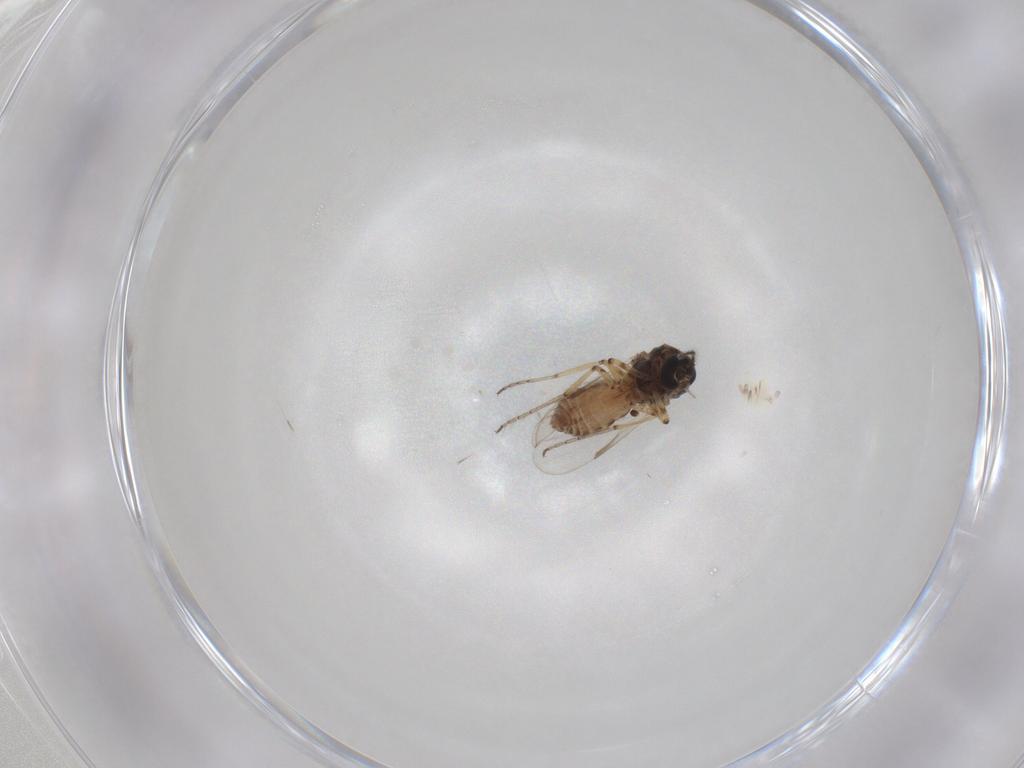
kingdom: Animalia
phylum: Arthropoda
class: Insecta
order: Diptera
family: Ceratopogonidae
